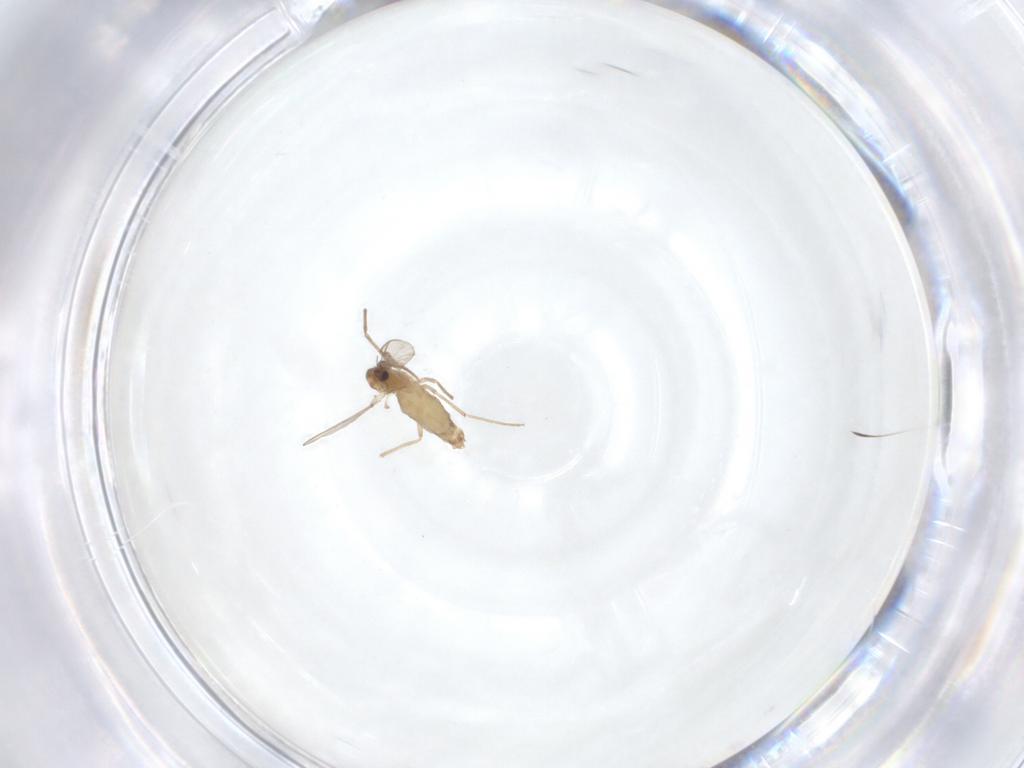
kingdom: Animalia
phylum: Arthropoda
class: Insecta
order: Diptera
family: Chironomidae
